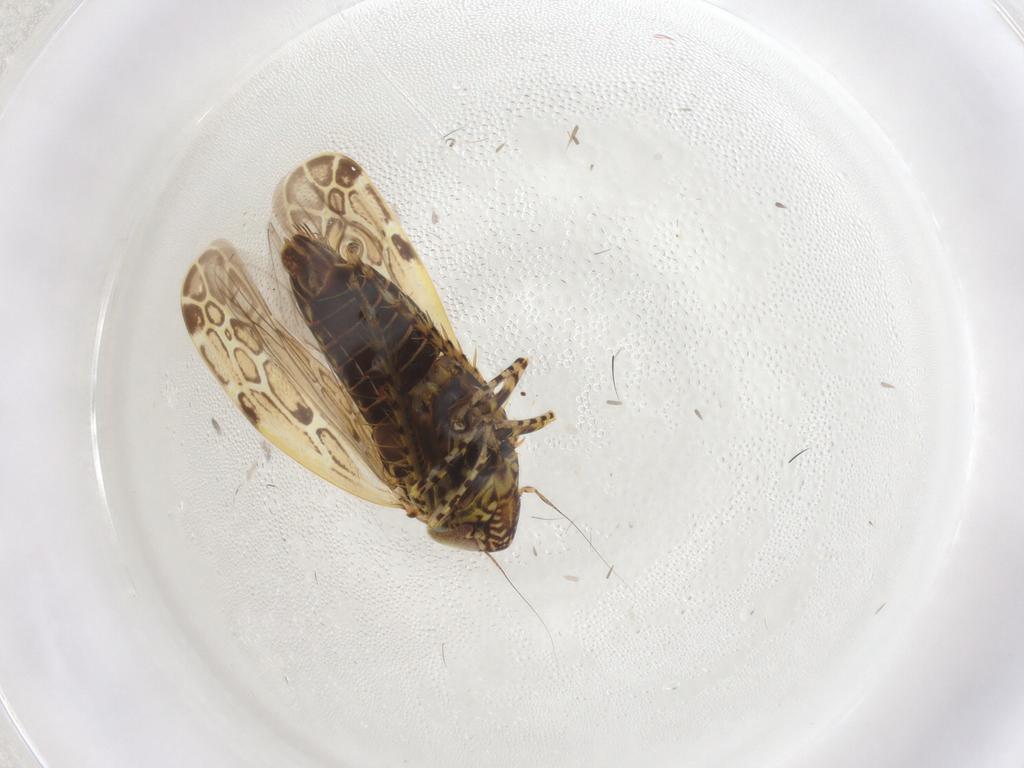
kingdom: Animalia
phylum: Arthropoda
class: Insecta
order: Hemiptera
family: Cicadellidae
